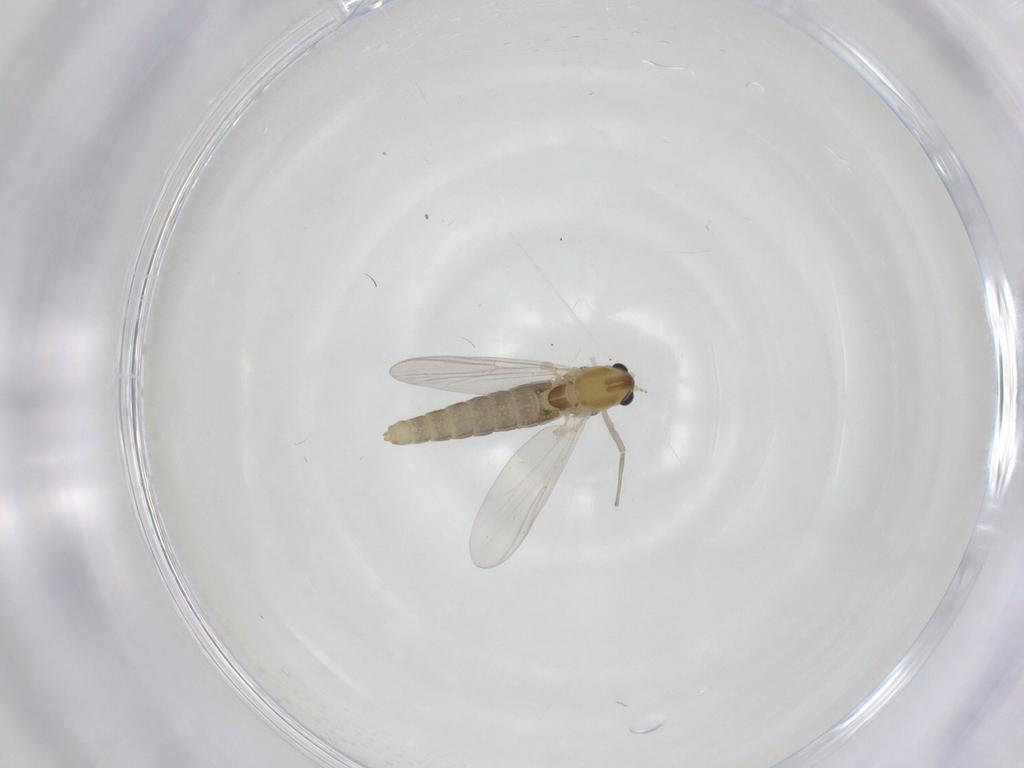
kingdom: Animalia
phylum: Arthropoda
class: Insecta
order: Diptera
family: Chironomidae
